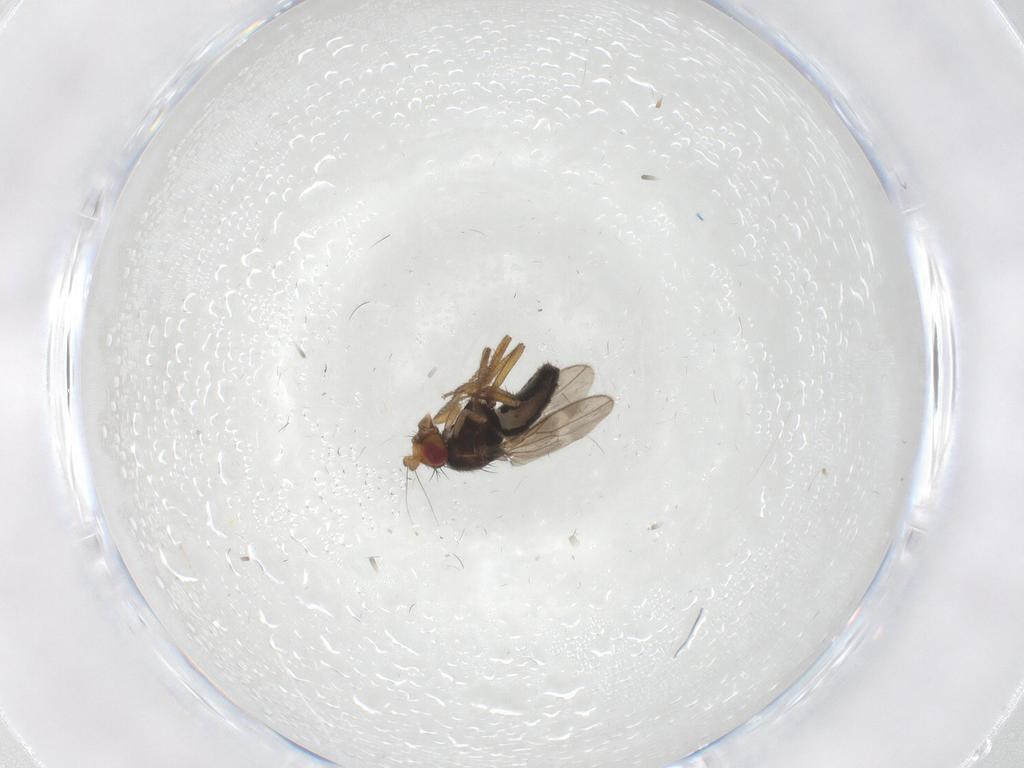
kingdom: Animalia
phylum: Arthropoda
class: Insecta
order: Diptera
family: Sphaeroceridae
